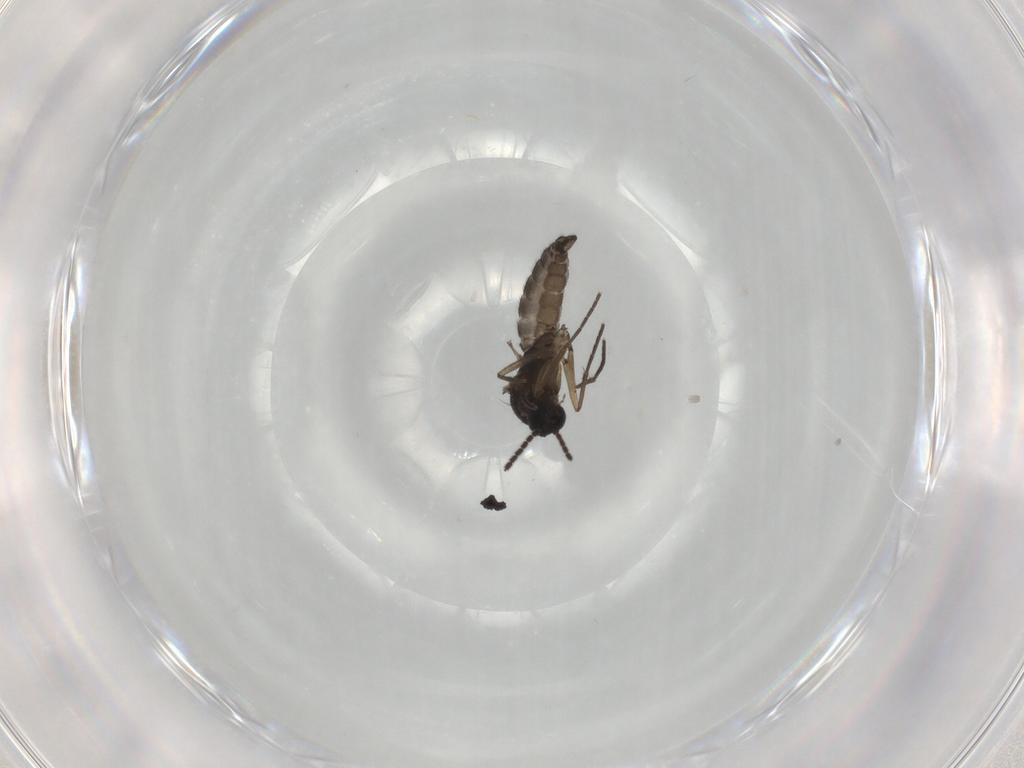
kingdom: Animalia
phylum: Arthropoda
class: Insecta
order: Diptera
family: Sciaridae
